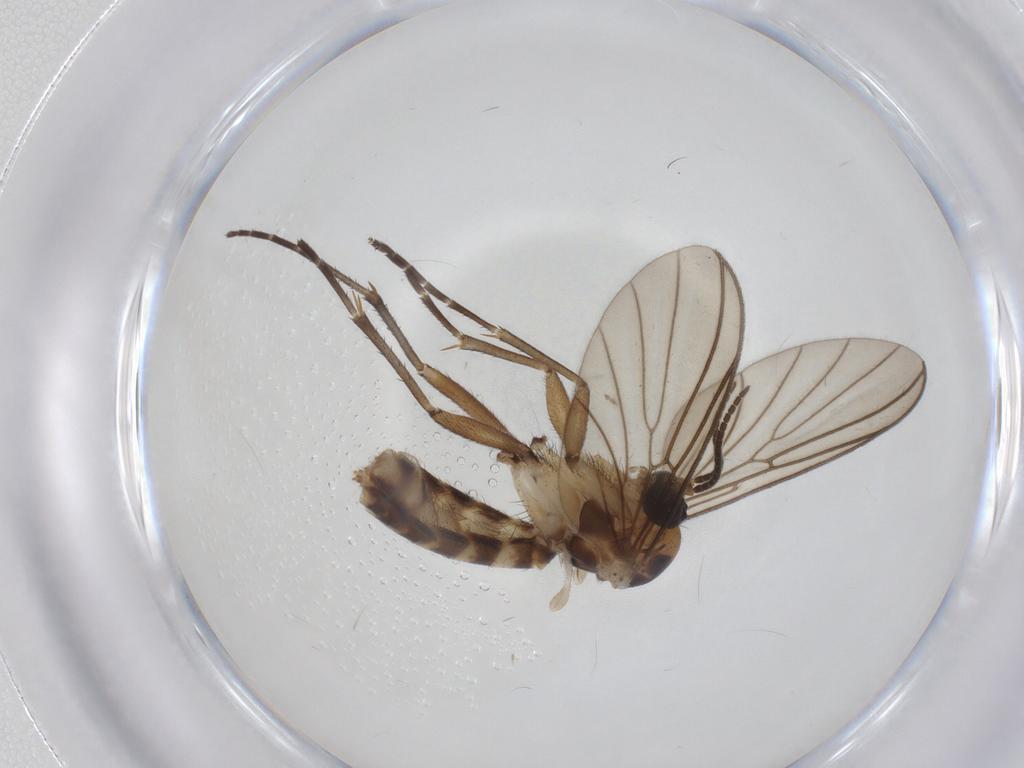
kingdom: Animalia
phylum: Arthropoda
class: Insecta
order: Diptera
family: Mycetophilidae
